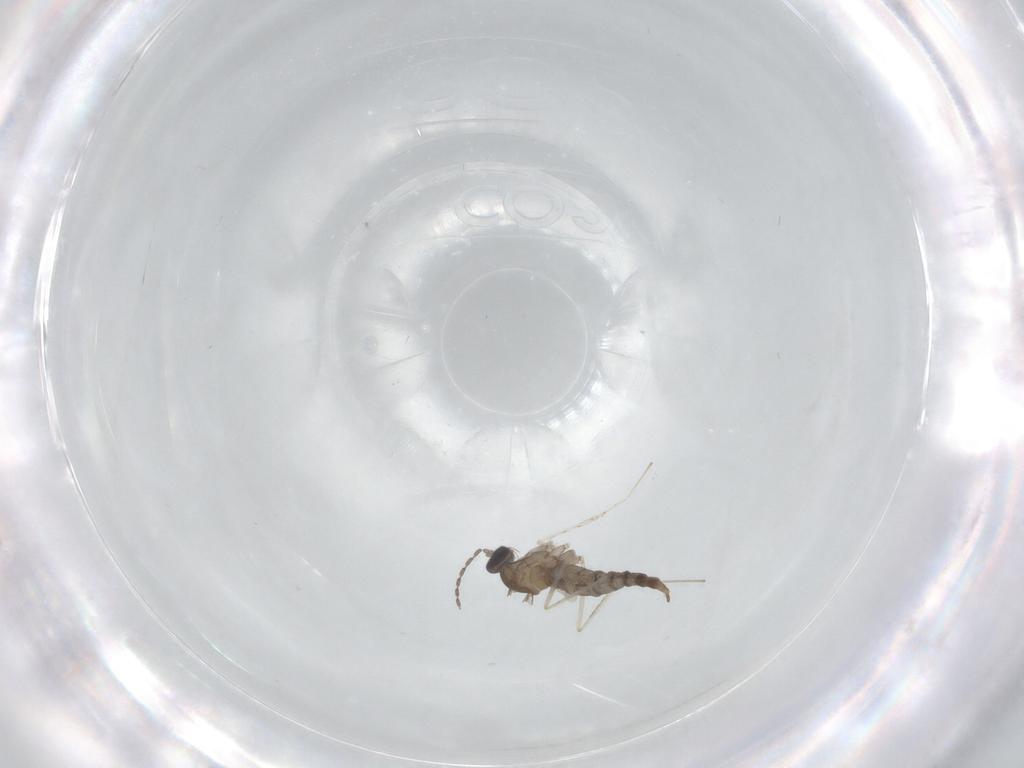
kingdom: Animalia
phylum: Arthropoda
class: Insecta
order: Diptera
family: Cecidomyiidae
